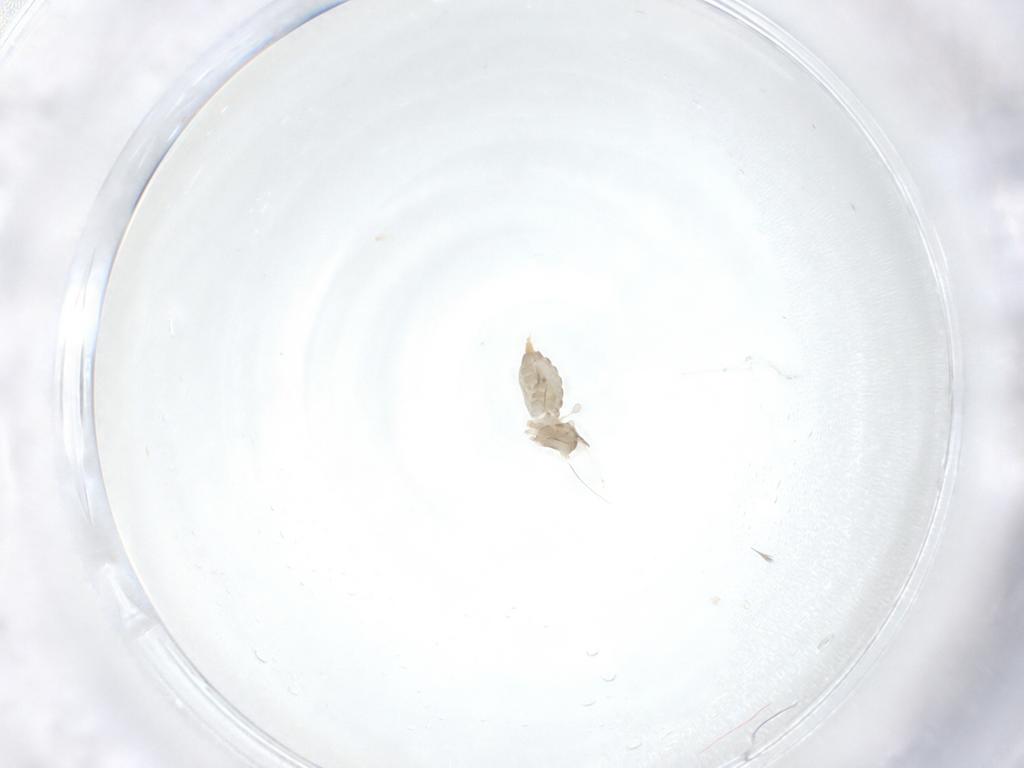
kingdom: Animalia
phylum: Arthropoda
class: Insecta
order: Diptera
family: Cecidomyiidae
